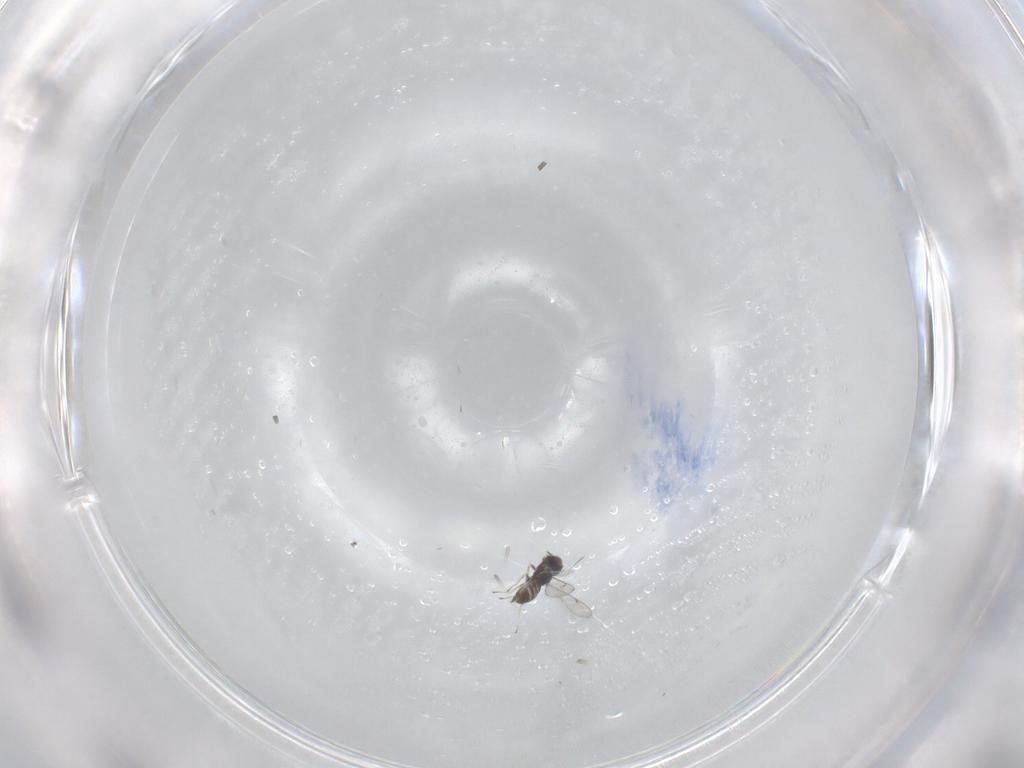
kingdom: Animalia
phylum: Arthropoda
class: Insecta
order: Hymenoptera
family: Eulophidae
